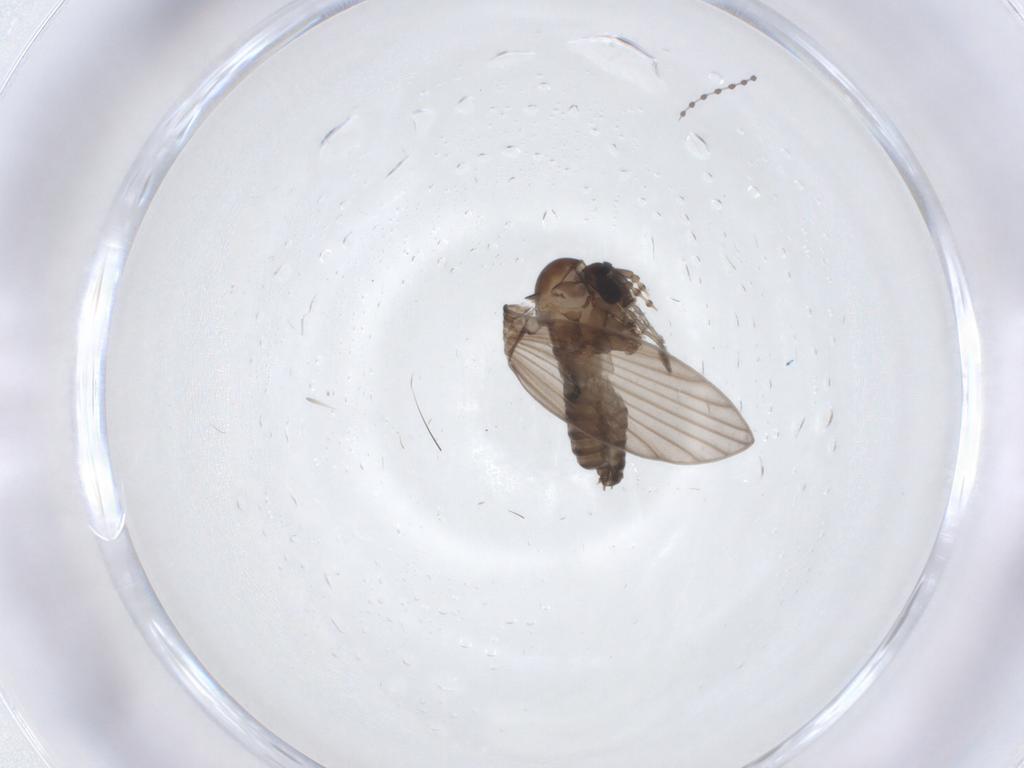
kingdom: Animalia
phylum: Arthropoda
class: Insecta
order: Diptera
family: Psychodidae
